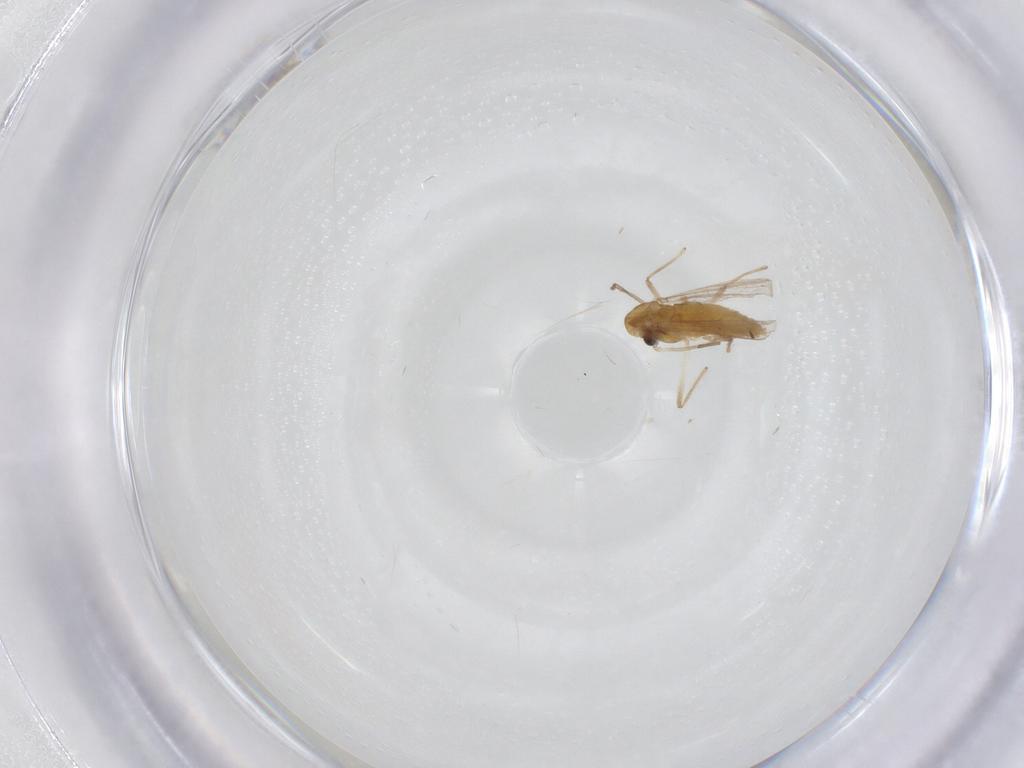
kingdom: Animalia
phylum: Arthropoda
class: Insecta
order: Diptera
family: Chironomidae
